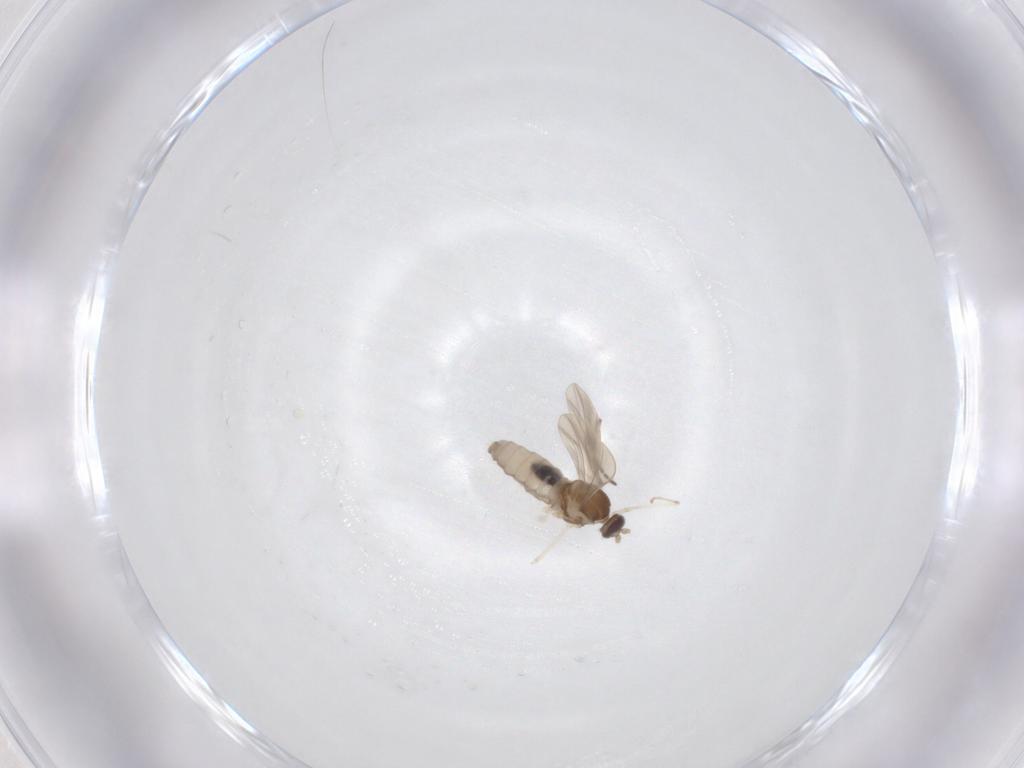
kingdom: Animalia
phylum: Arthropoda
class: Insecta
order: Diptera
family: Cecidomyiidae
